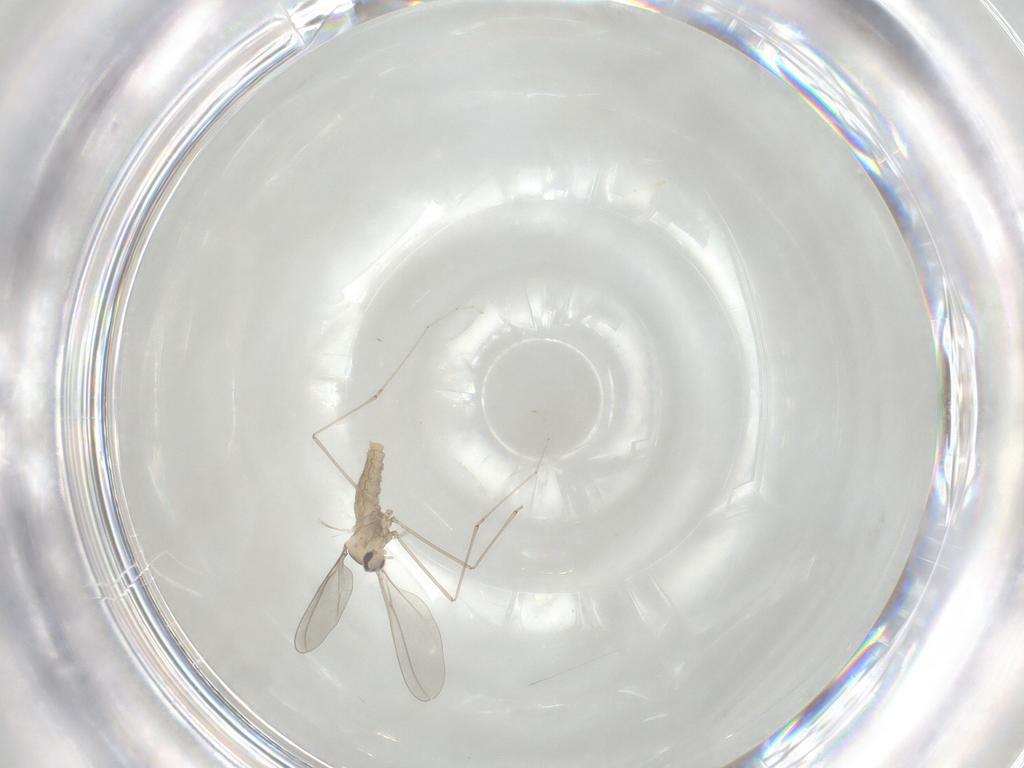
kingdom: Animalia
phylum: Arthropoda
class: Insecta
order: Diptera
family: Cecidomyiidae
